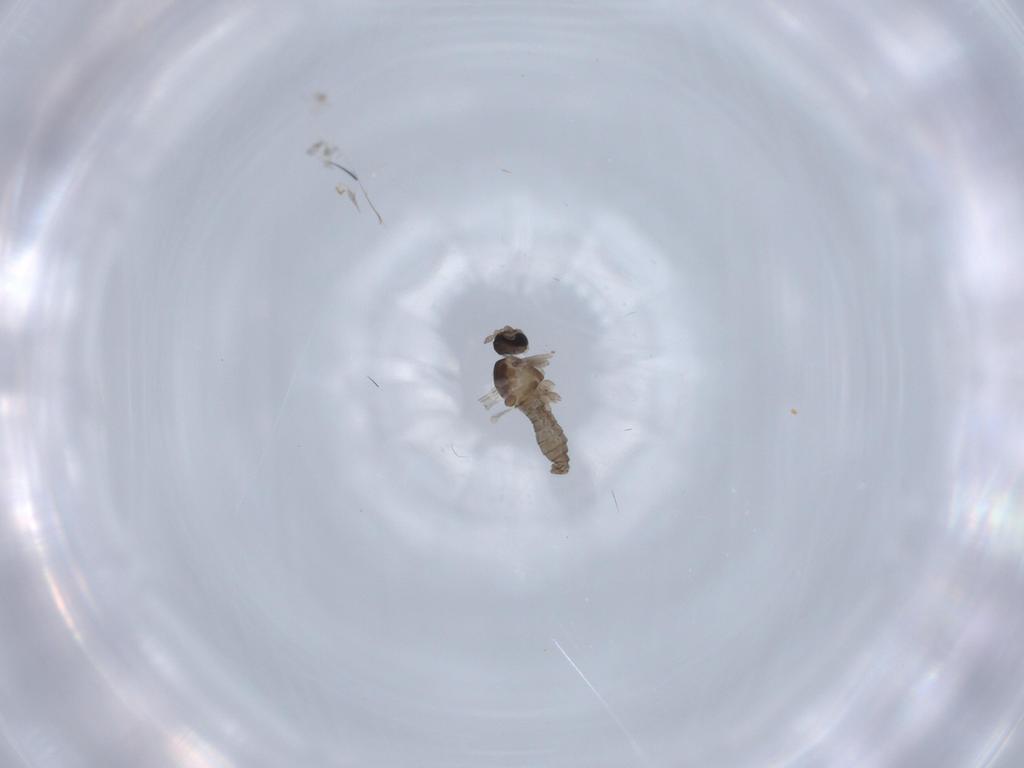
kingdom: Animalia
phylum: Arthropoda
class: Insecta
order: Diptera
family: Cecidomyiidae
